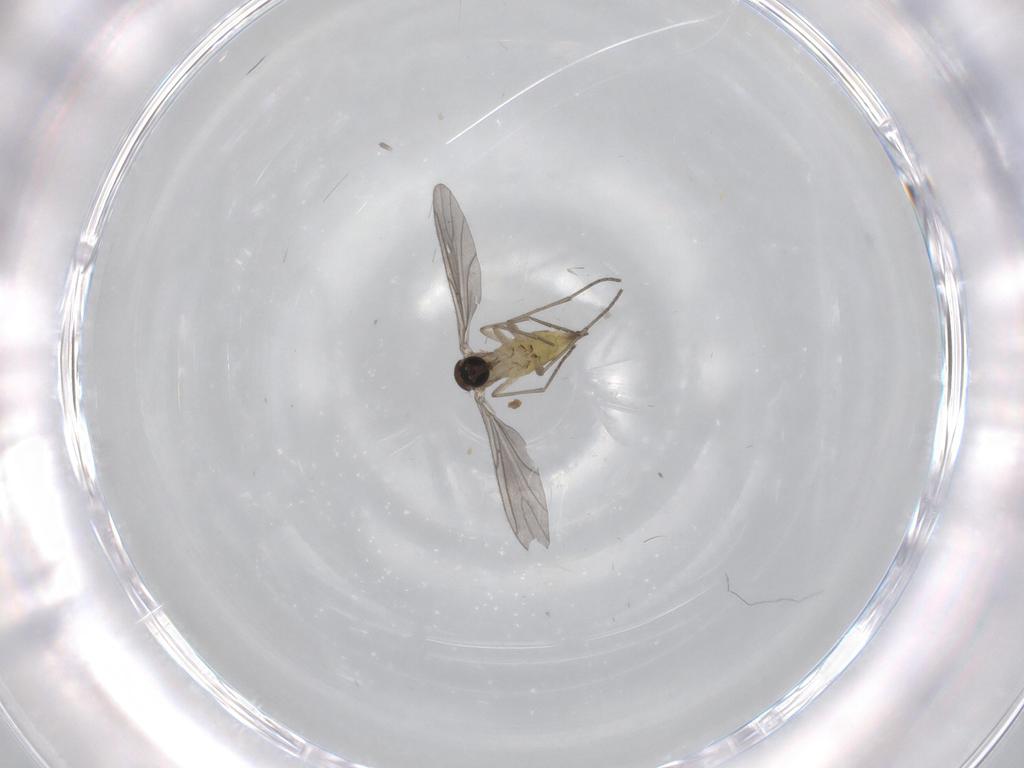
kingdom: Animalia
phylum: Arthropoda
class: Insecta
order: Diptera
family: Sciaridae
